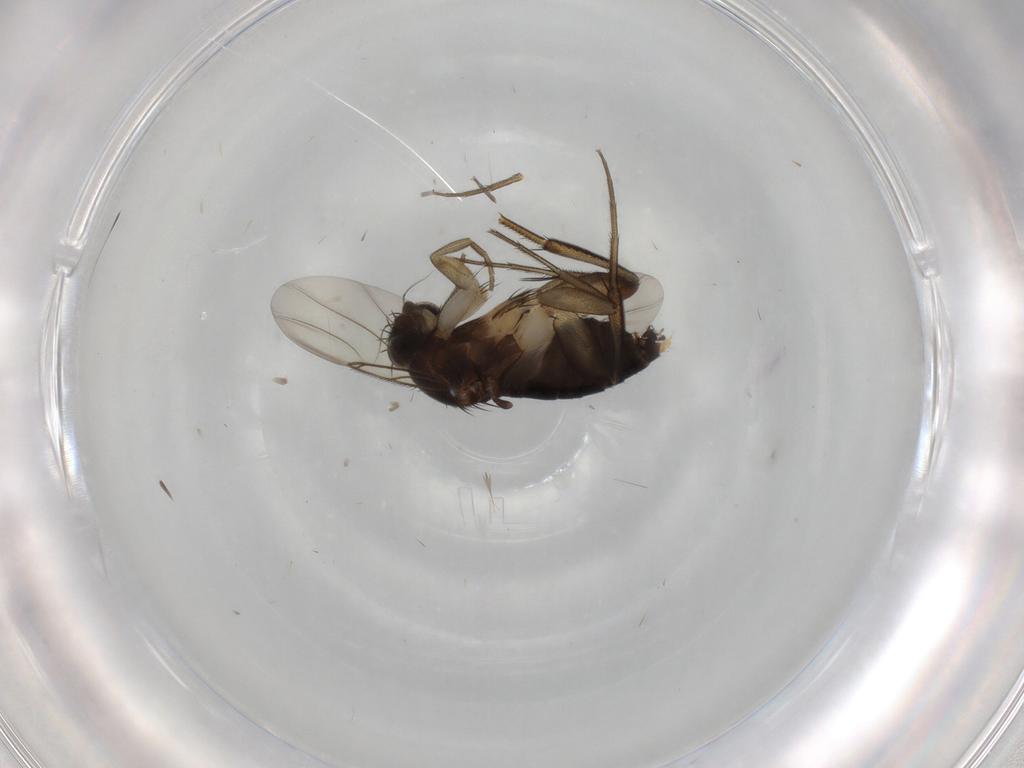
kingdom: Animalia
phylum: Arthropoda
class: Insecta
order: Diptera
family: Phoridae
